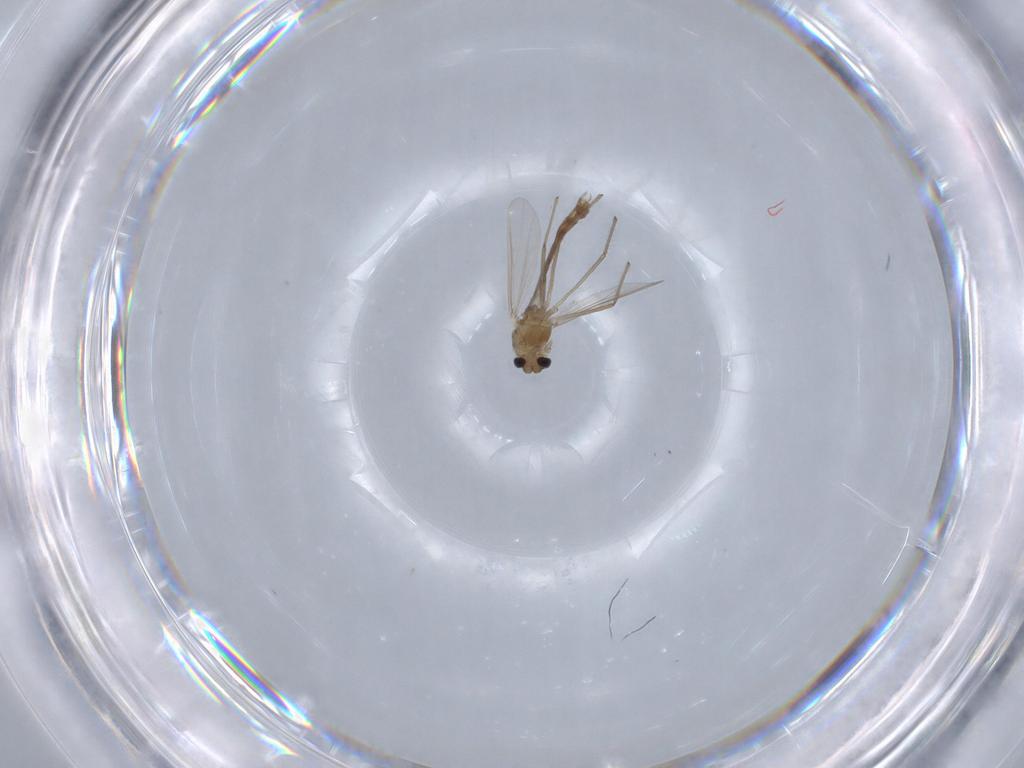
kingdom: Animalia
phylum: Arthropoda
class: Insecta
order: Diptera
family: Chironomidae
